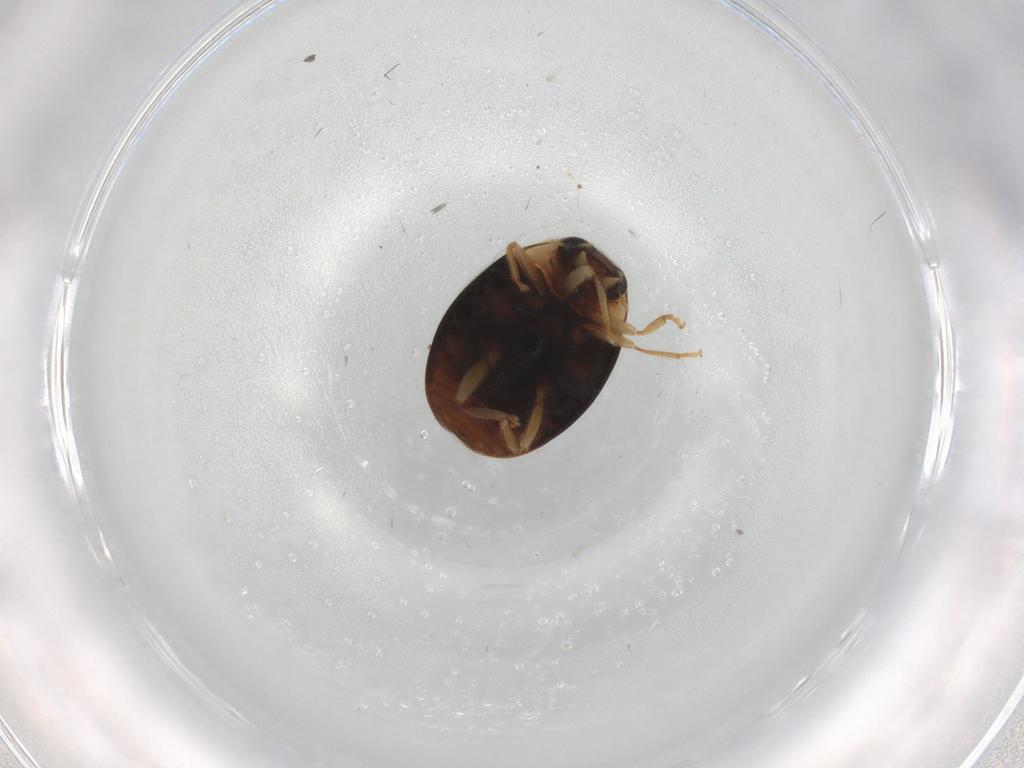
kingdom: Animalia
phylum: Arthropoda
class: Insecta
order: Coleoptera
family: Coccinellidae
